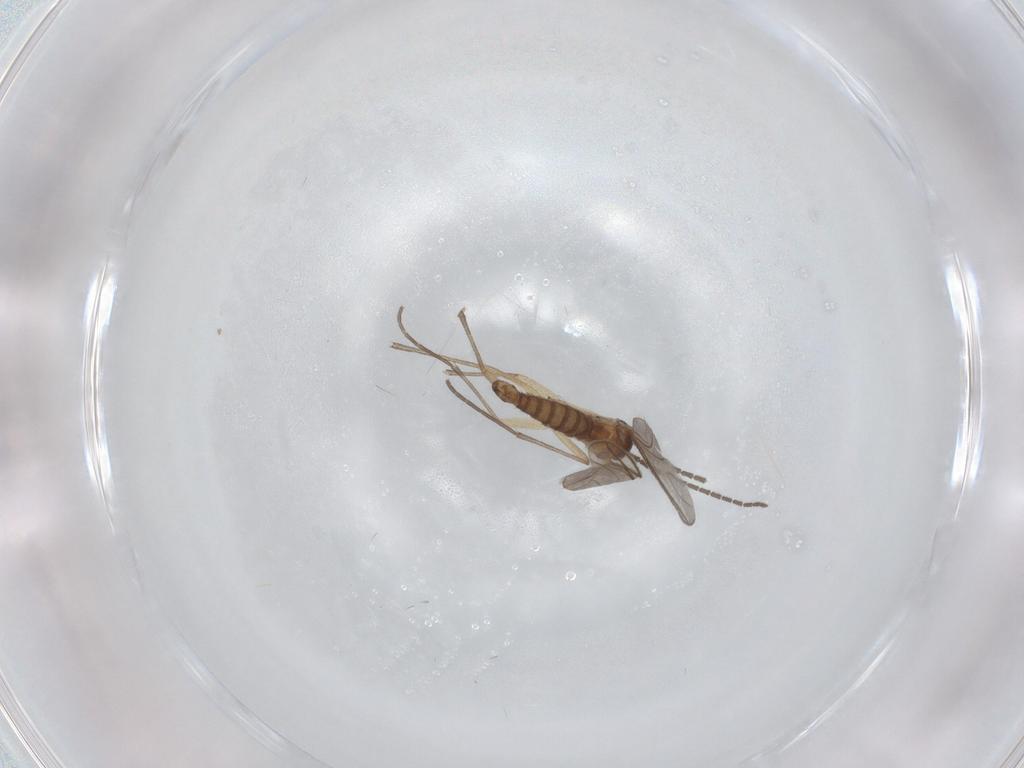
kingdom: Animalia
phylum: Arthropoda
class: Insecta
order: Diptera
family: Sciaridae
